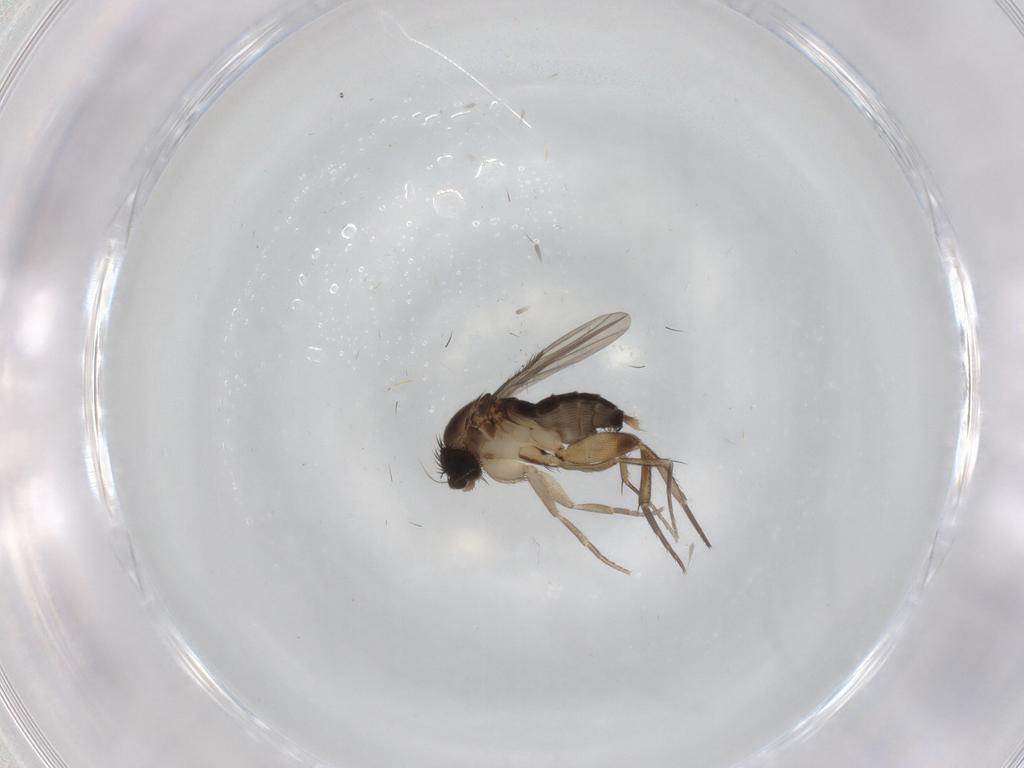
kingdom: Animalia
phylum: Arthropoda
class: Insecta
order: Diptera
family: Phoridae
